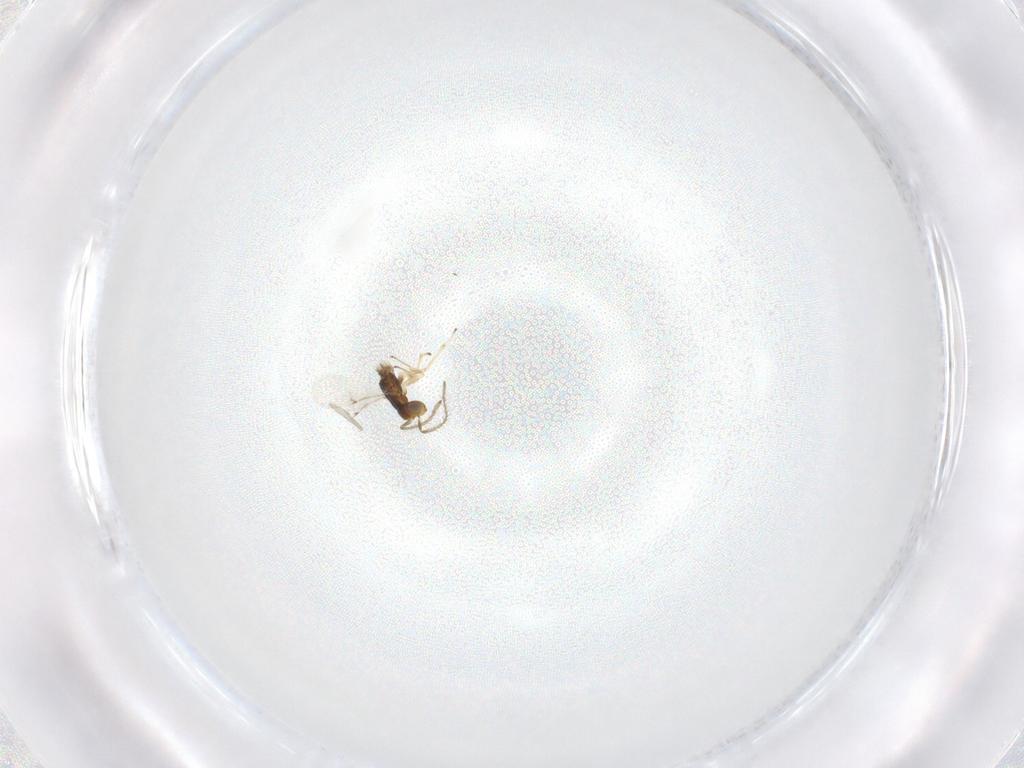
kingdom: Animalia
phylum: Arthropoda
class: Insecta
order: Hymenoptera
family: Encyrtidae
